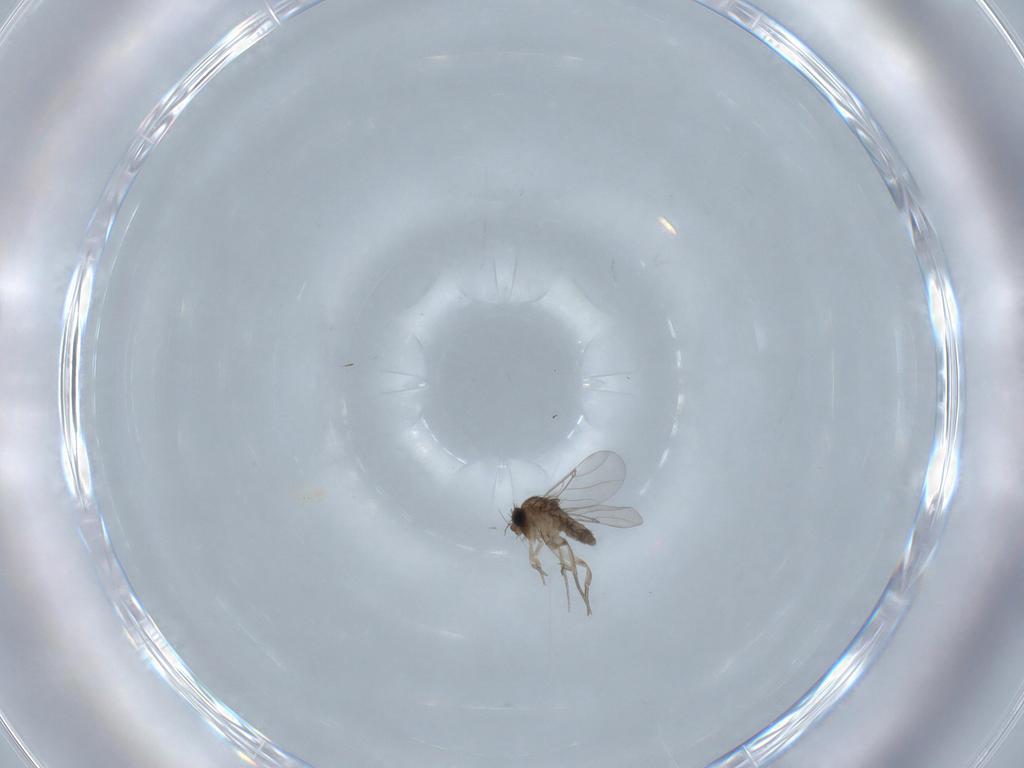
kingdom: Animalia
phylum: Arthropoda
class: Insecta
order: Diptera
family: Phoridae
